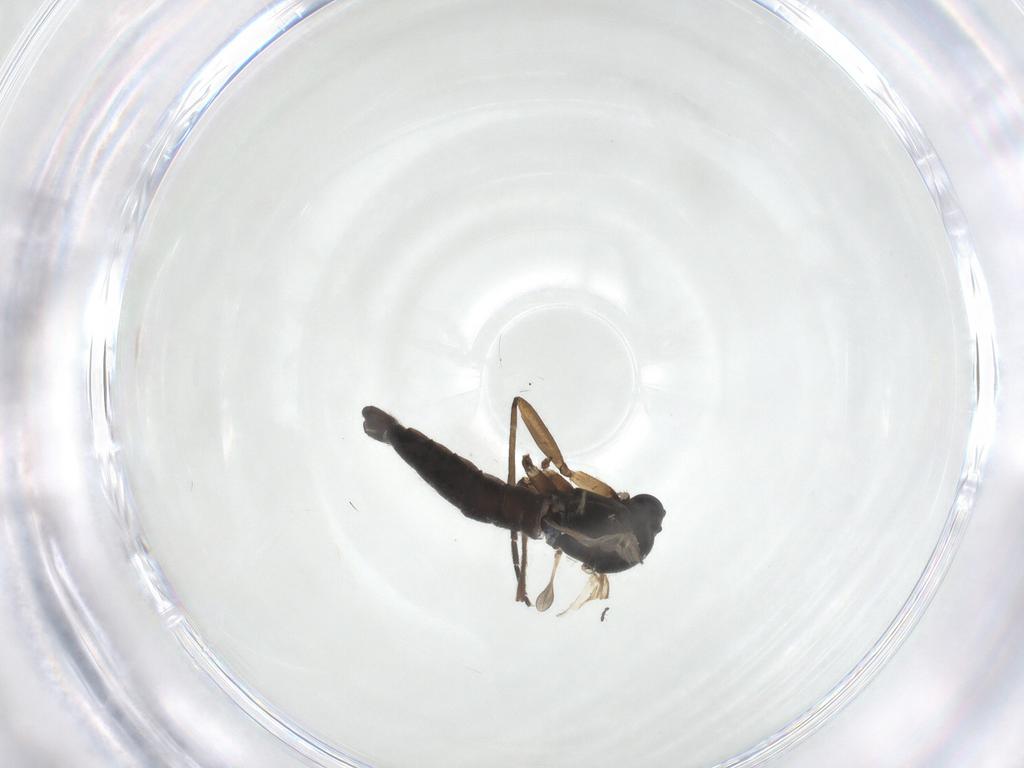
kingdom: Animalia
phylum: Arthropoda
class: Insecta
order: Diptera
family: Sciaridae
